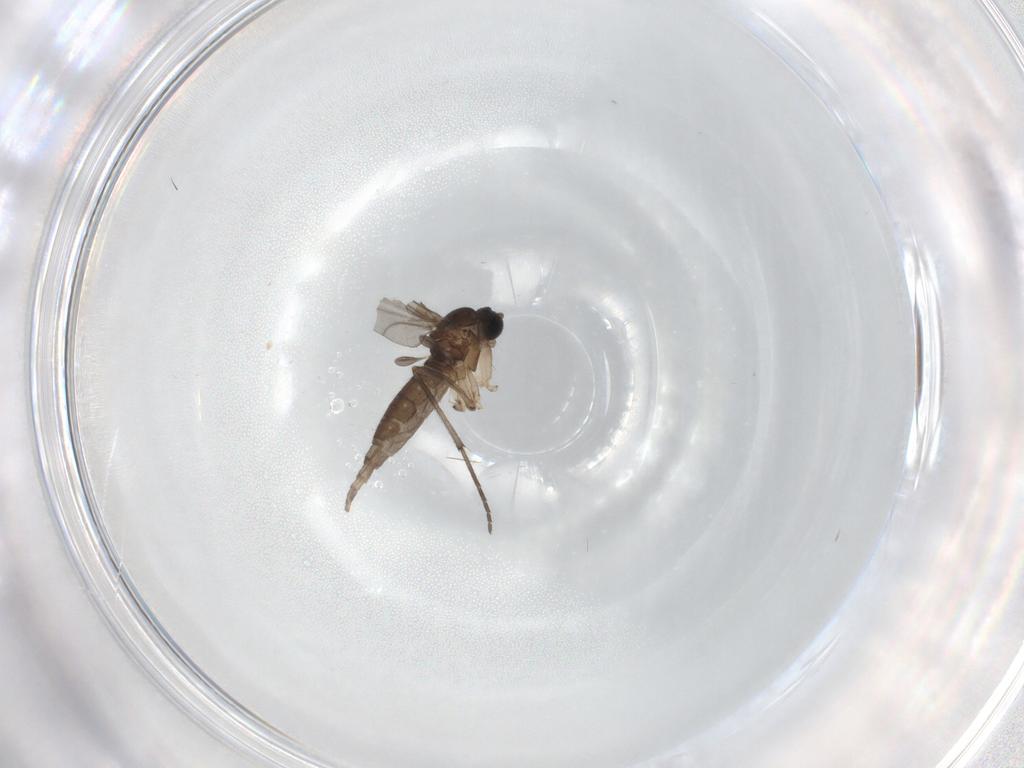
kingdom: Animalia
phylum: Arthropoda
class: Insecta
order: Diptera
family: Sciaridae
